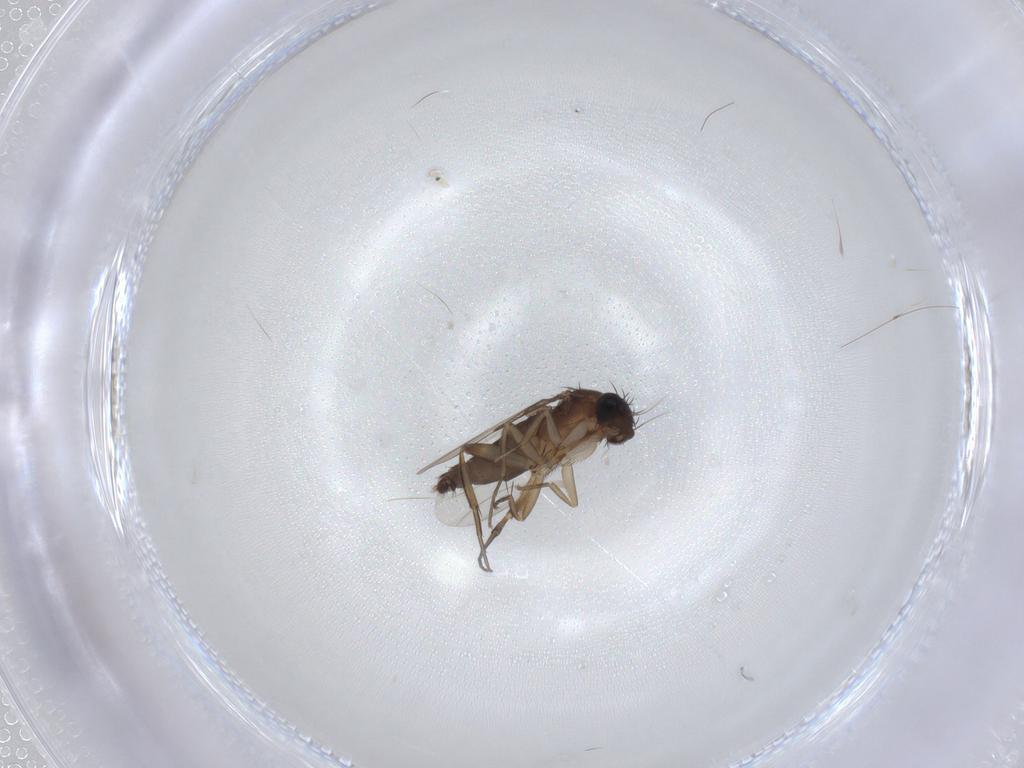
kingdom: Animalia
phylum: Arthropoda
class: Insecta
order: Diptera
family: Phoridae
